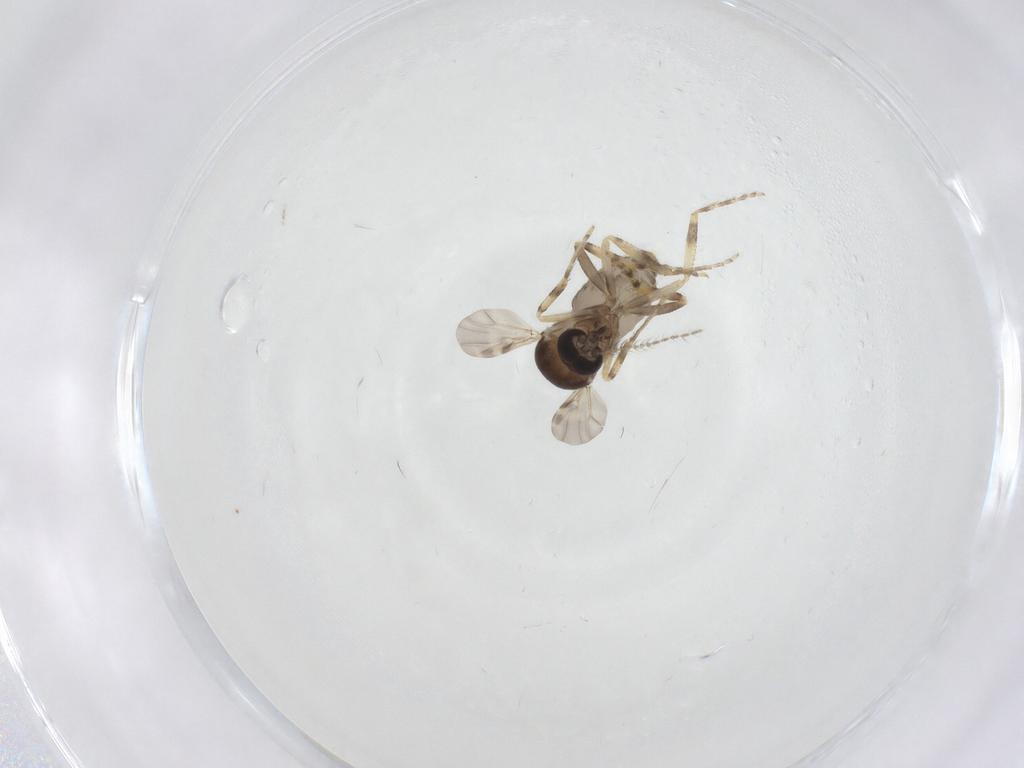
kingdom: Animalia
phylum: Arthropoda
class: Insecta
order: Diptera
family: Ceratopogonidae
